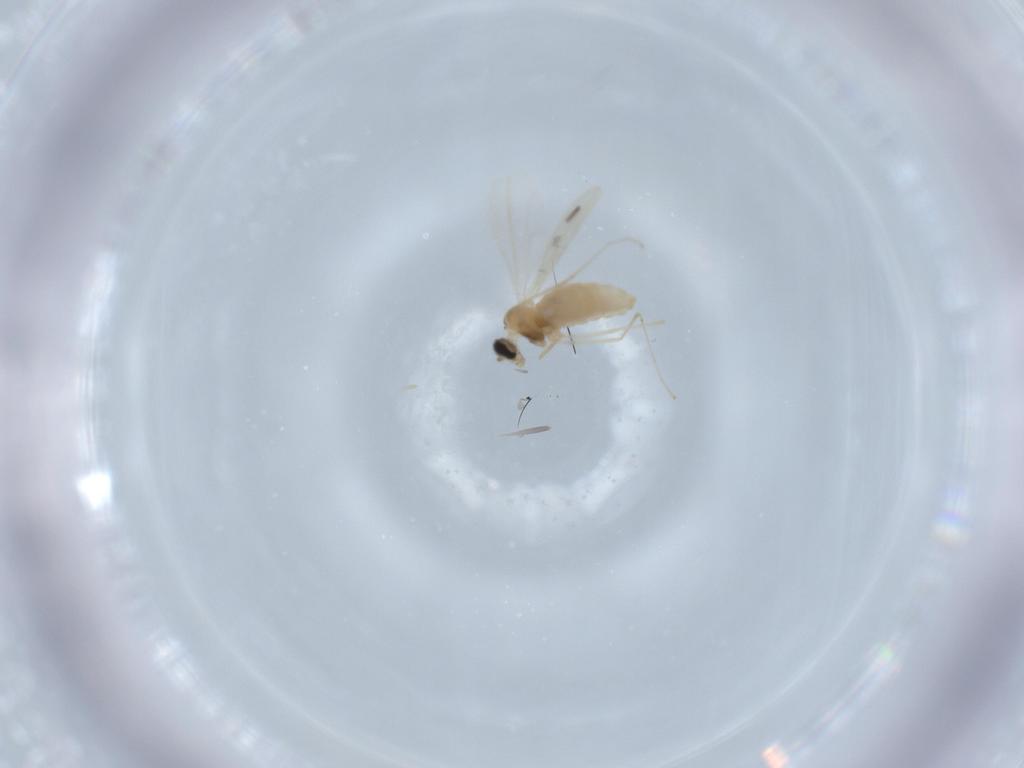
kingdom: Animalia
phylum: Arthropoda
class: Insecta
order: Diptera
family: Cecidomyiidae
